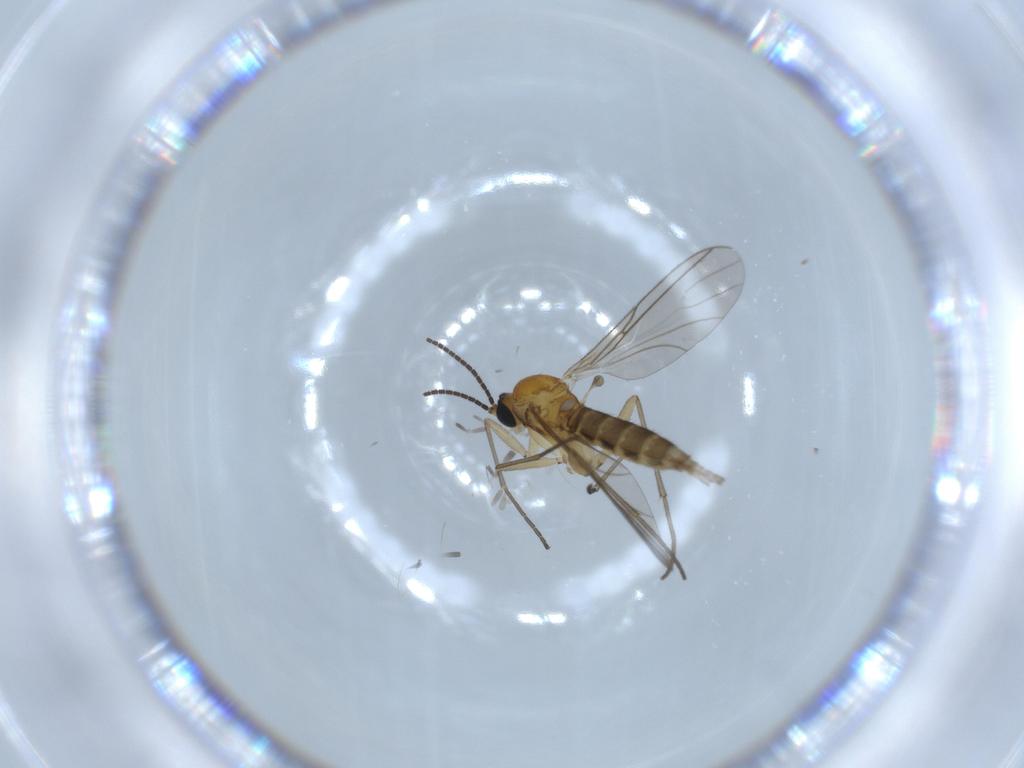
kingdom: Animalia
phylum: Arthropoda
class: Insecta
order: Diptera
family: Sciaridae
